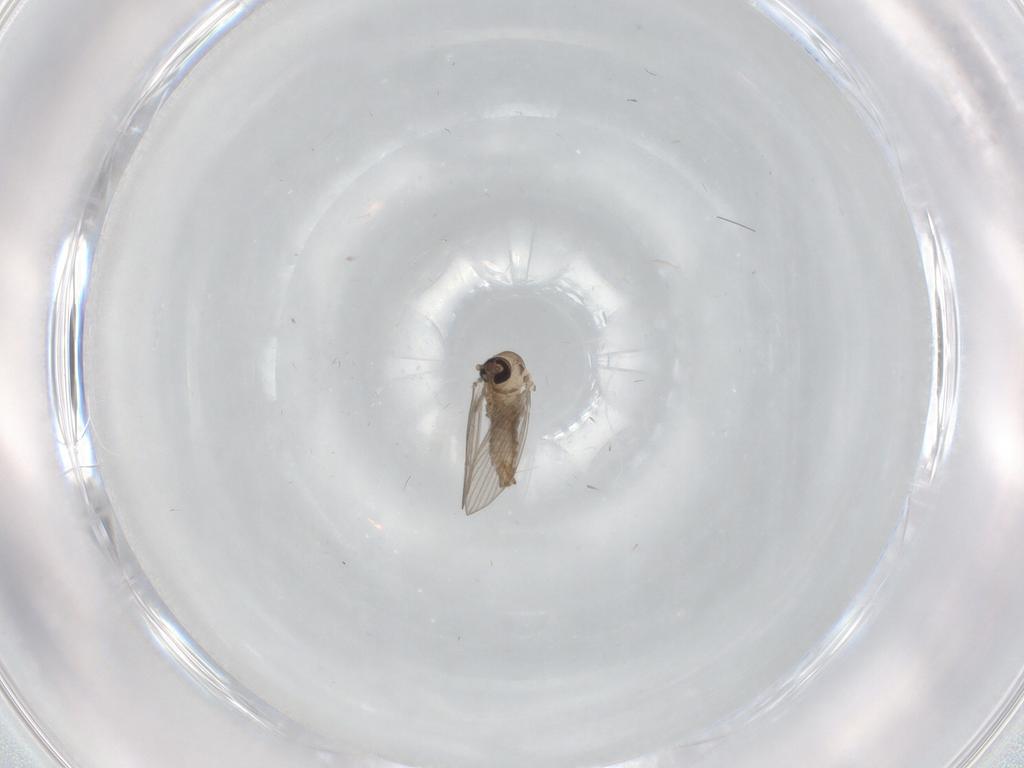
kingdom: Animalia
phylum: Arthropoda
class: Insecta
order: Diptera
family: Psychodidae
